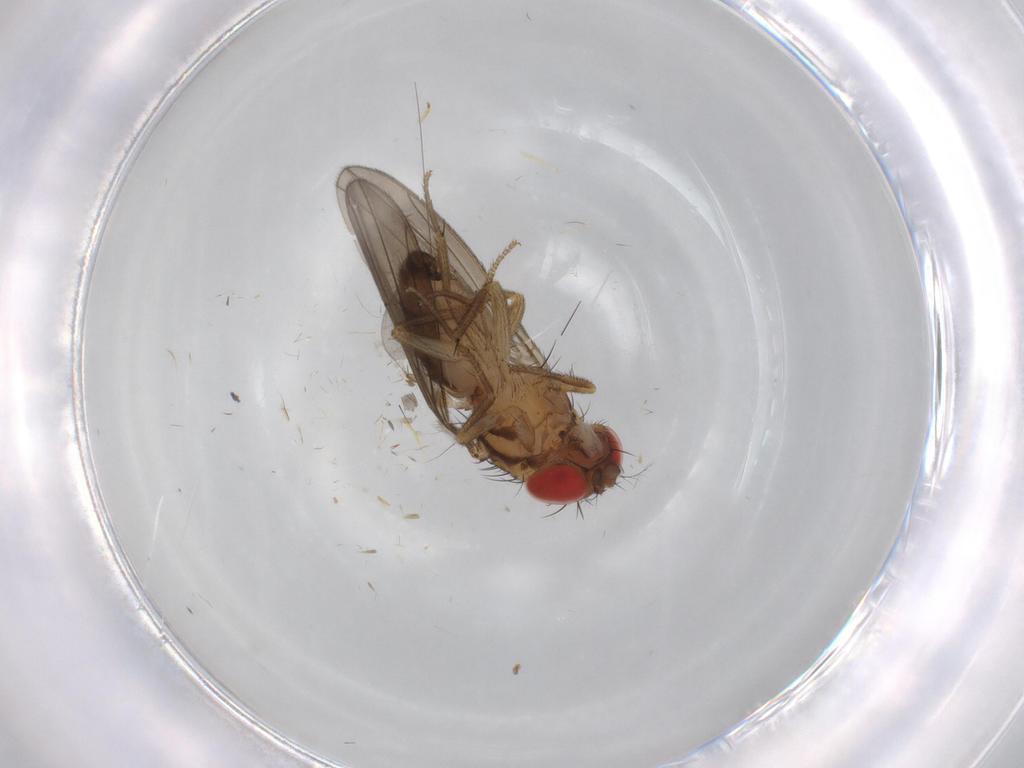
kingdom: Animalia
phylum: Arthropoda
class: Insecta
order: Diptera
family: Drosophilidae
